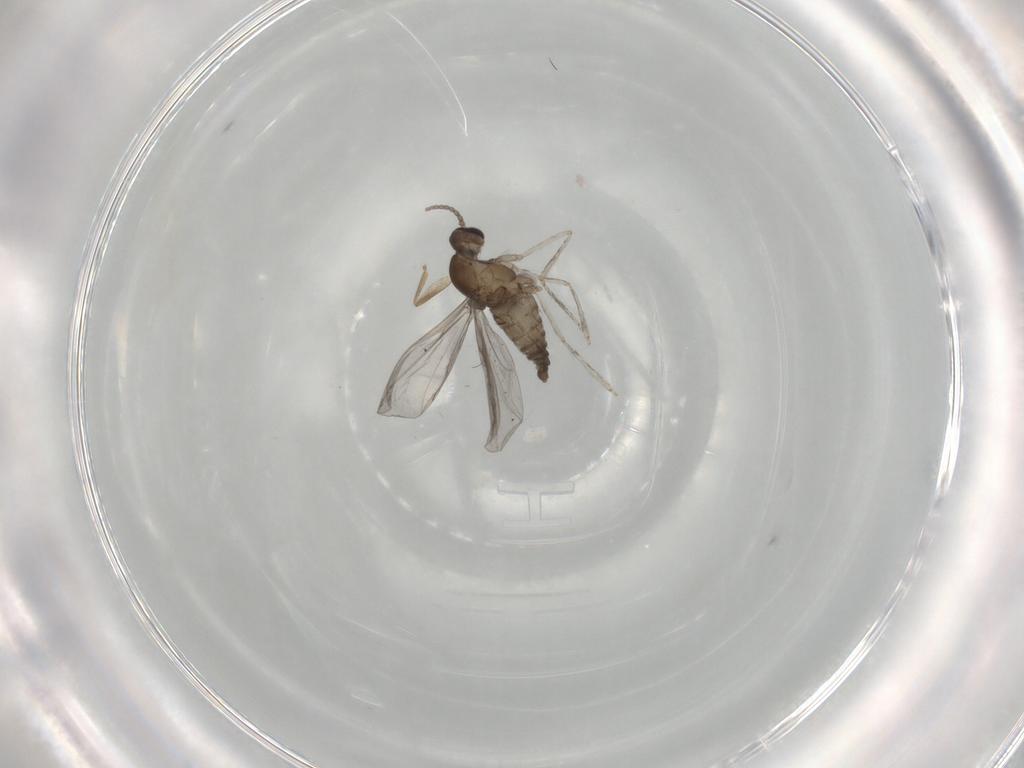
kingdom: Animalia
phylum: Arthropoda
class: Insecta
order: Diptera
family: Cecidomyiidae
